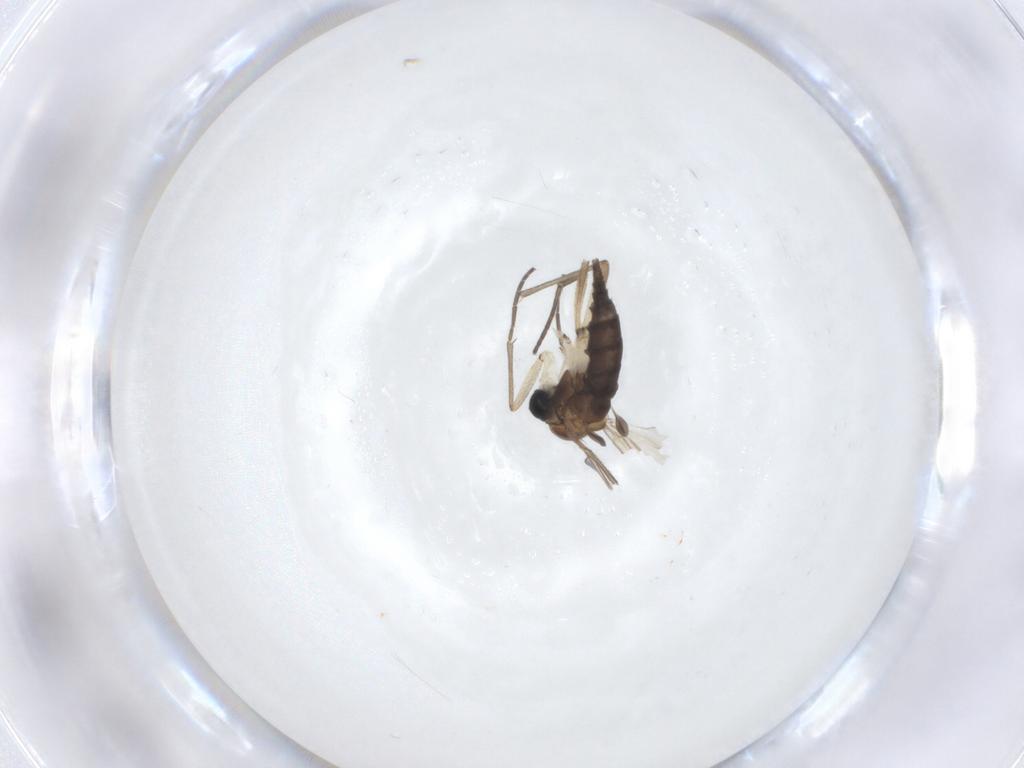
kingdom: Animalia
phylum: Arthropoda
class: Insecta
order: Diptera
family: Sciaridae
